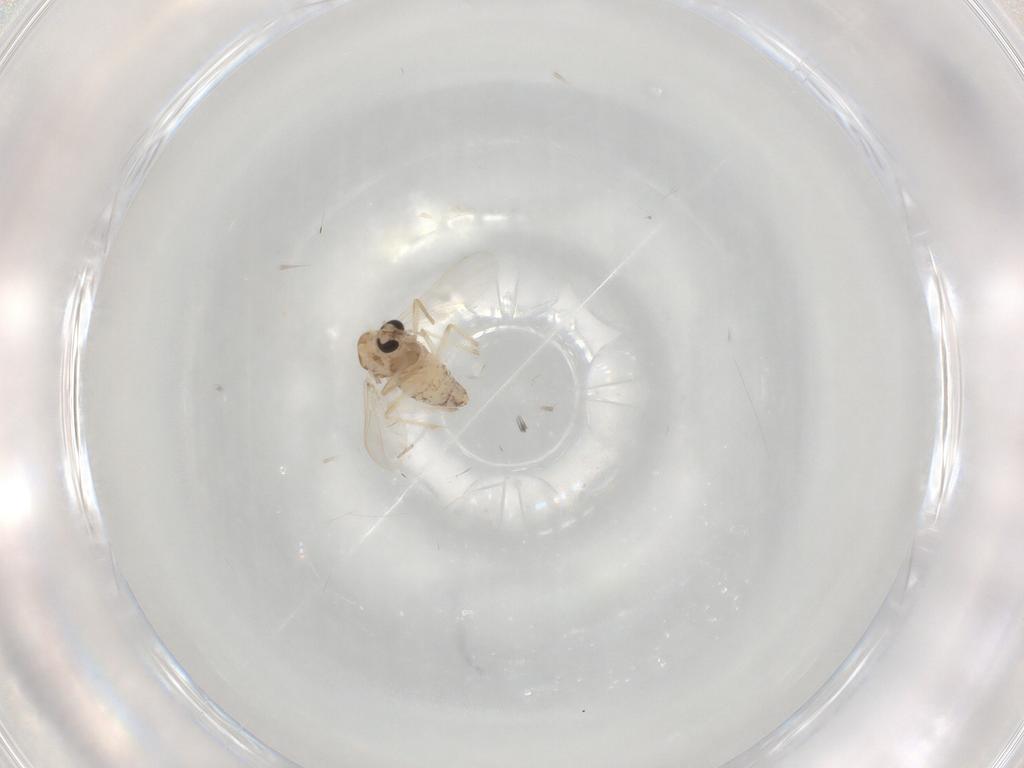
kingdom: Animalia
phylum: Arthropoda
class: Insecta
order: Diptera
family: Chironomidae
